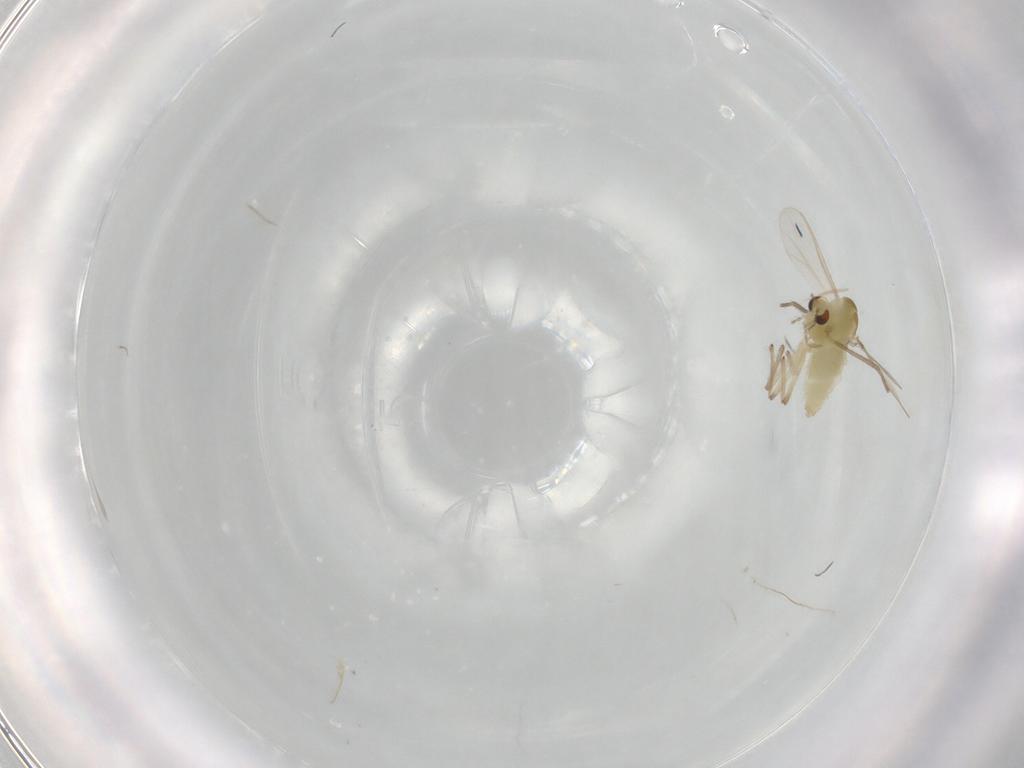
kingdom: Animalia
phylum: Arthropoda
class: Insecta
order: Diptera
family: Chironomidae
